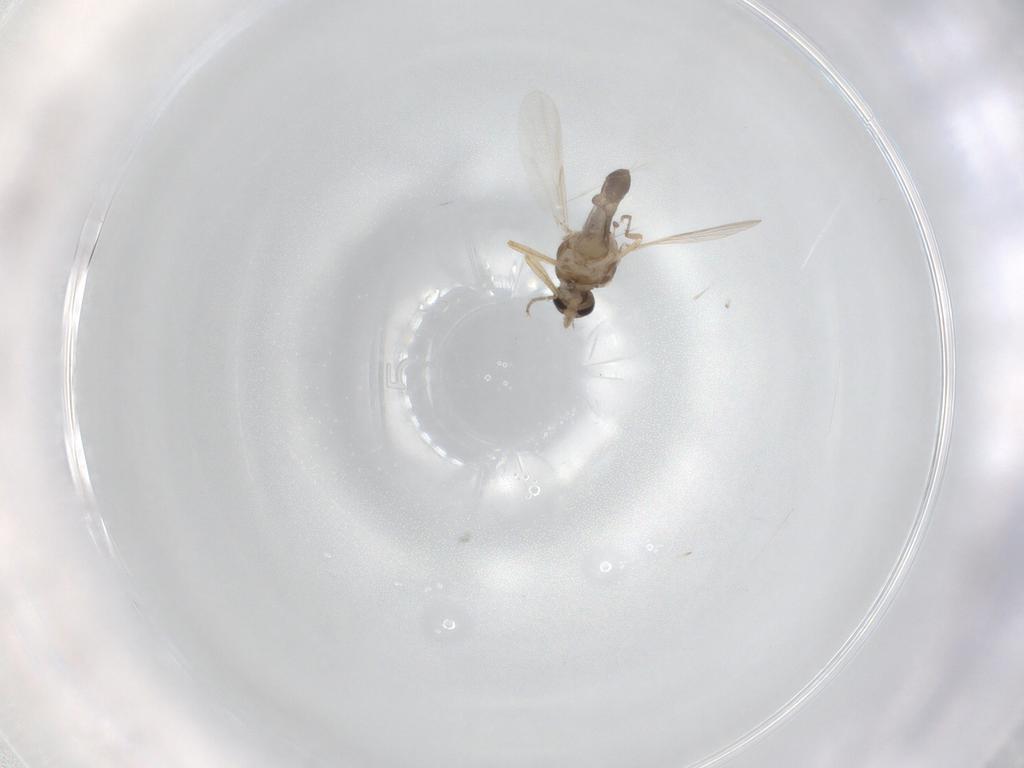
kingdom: Animalia
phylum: Arthropoda
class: Insecta
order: Diptera
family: Ceratopogonidae
